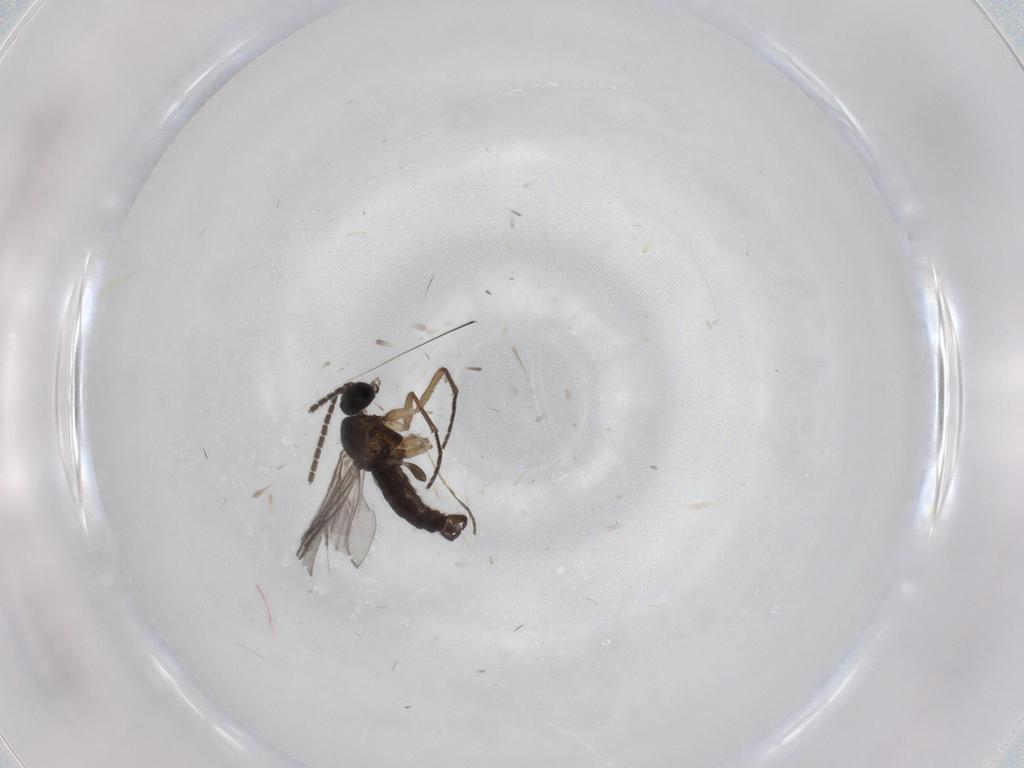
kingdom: Animalia
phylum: Arthropoda
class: Insecta
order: Diptera
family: Sciaridae
